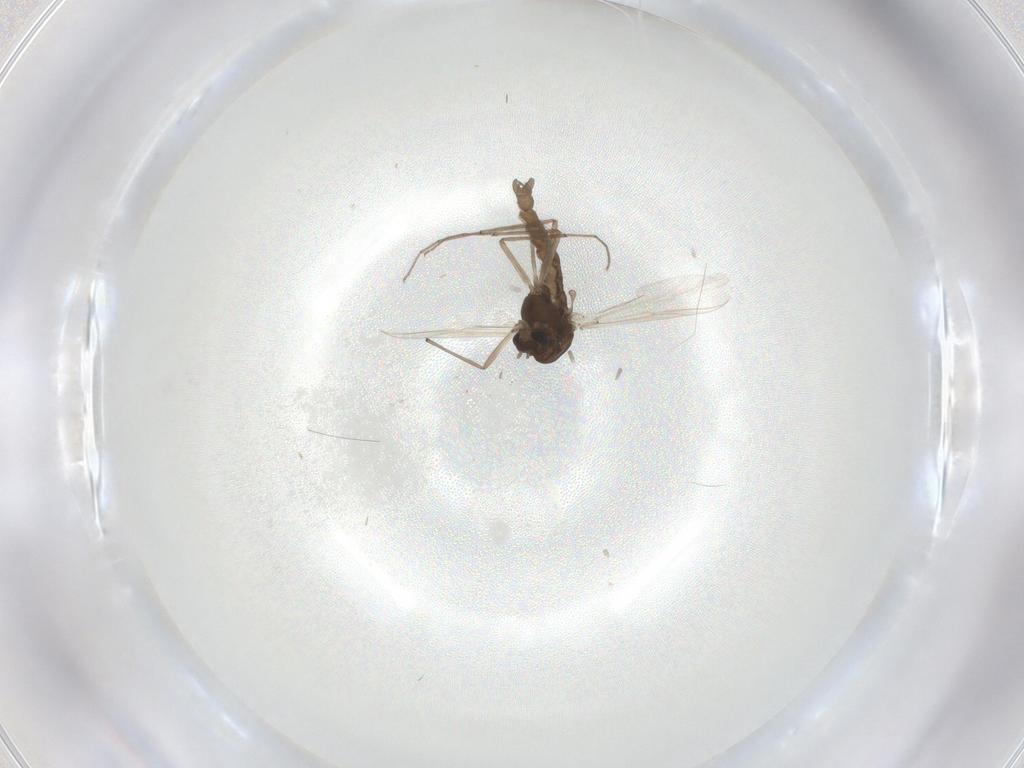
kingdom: Animalia
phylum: Arthropoda
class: Insecta
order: Diptera
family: Chironomidae
